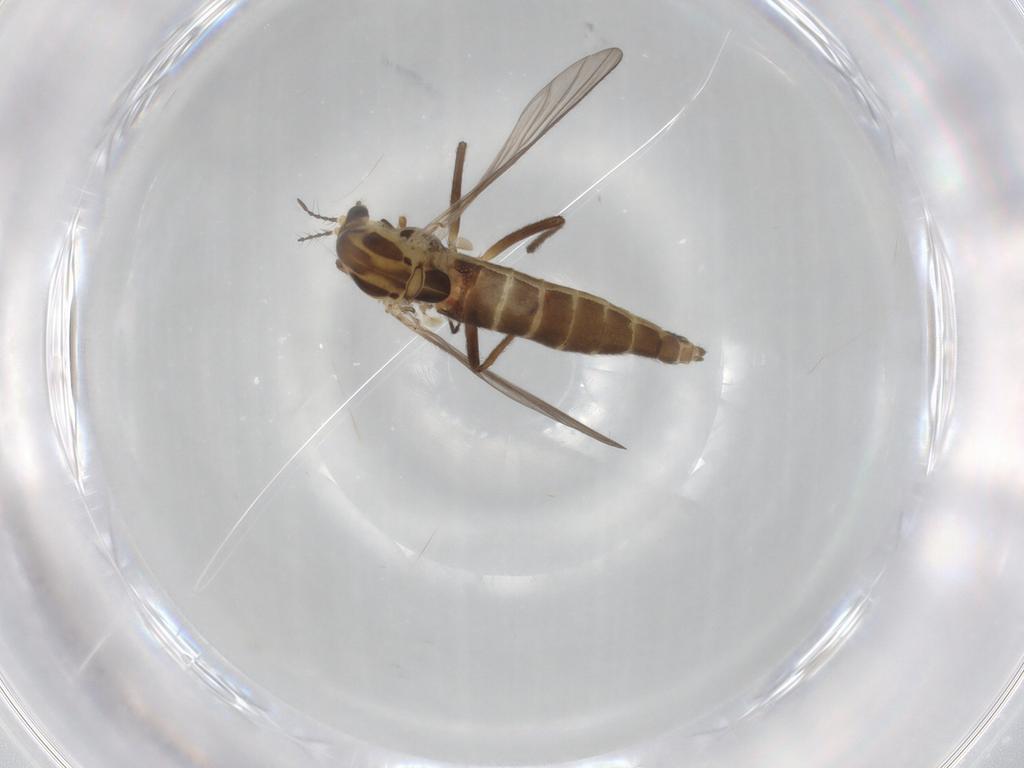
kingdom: Animalia
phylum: Arthropoda
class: Insecta
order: Diptera
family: Chironomidae
